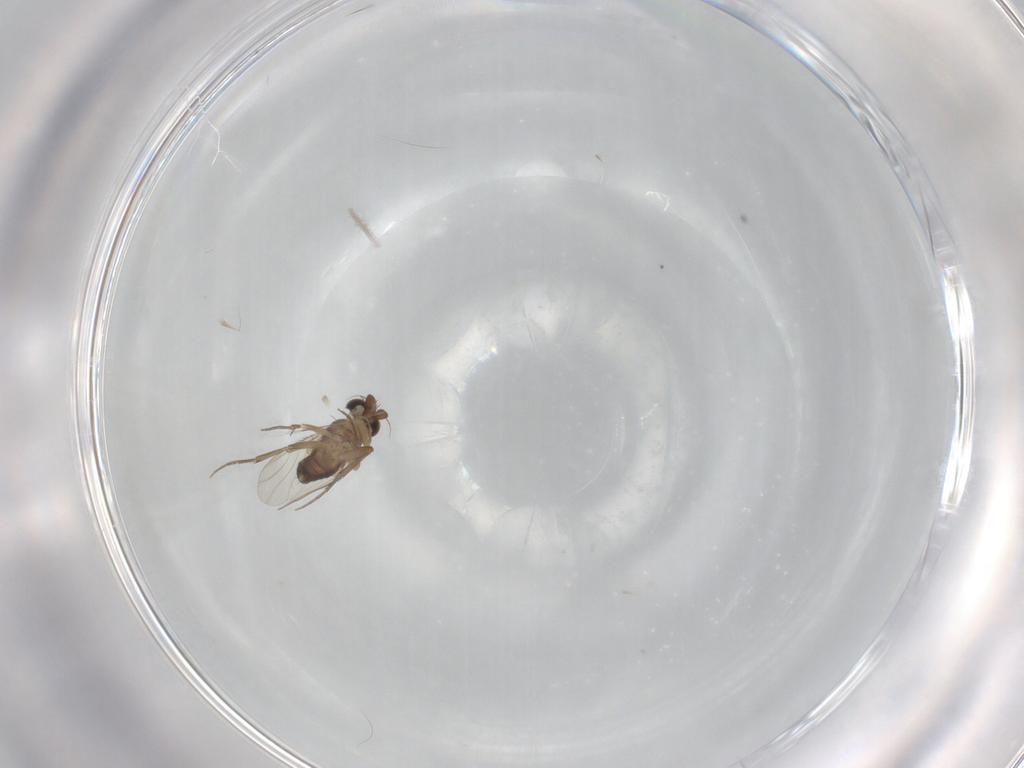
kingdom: Animalia
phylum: Arthropoda
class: Insecta
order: Diptera
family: Phoridae
